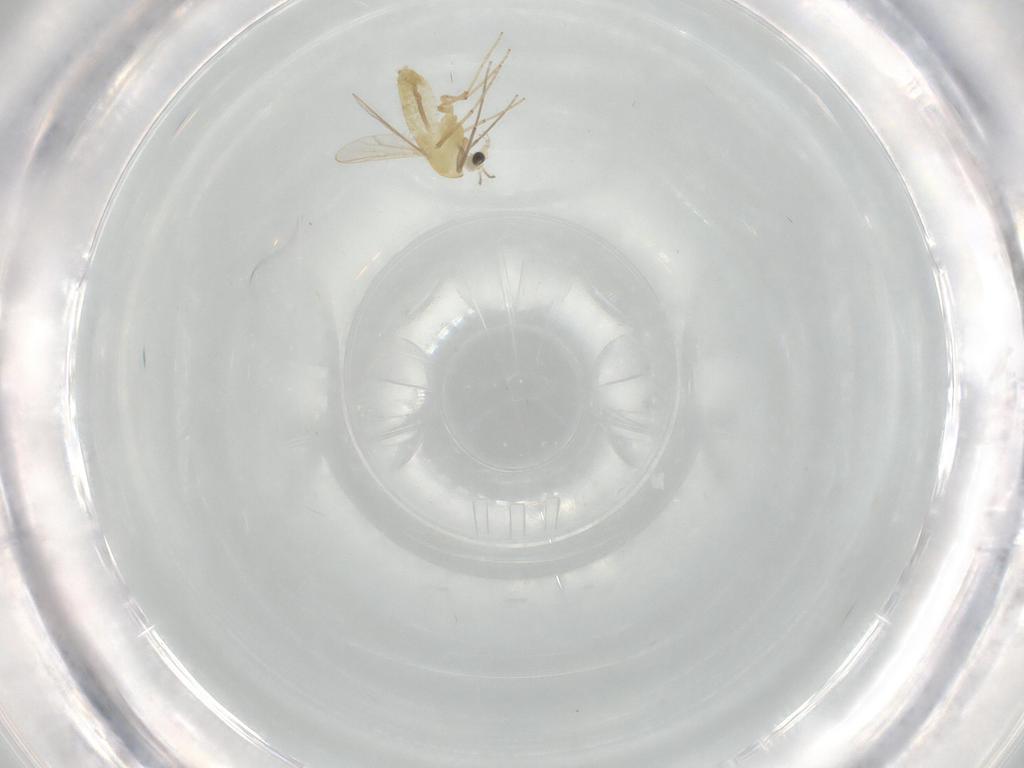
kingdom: Animalia
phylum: Arthropoda
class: Insecta
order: Diptera
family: Chironomidae
